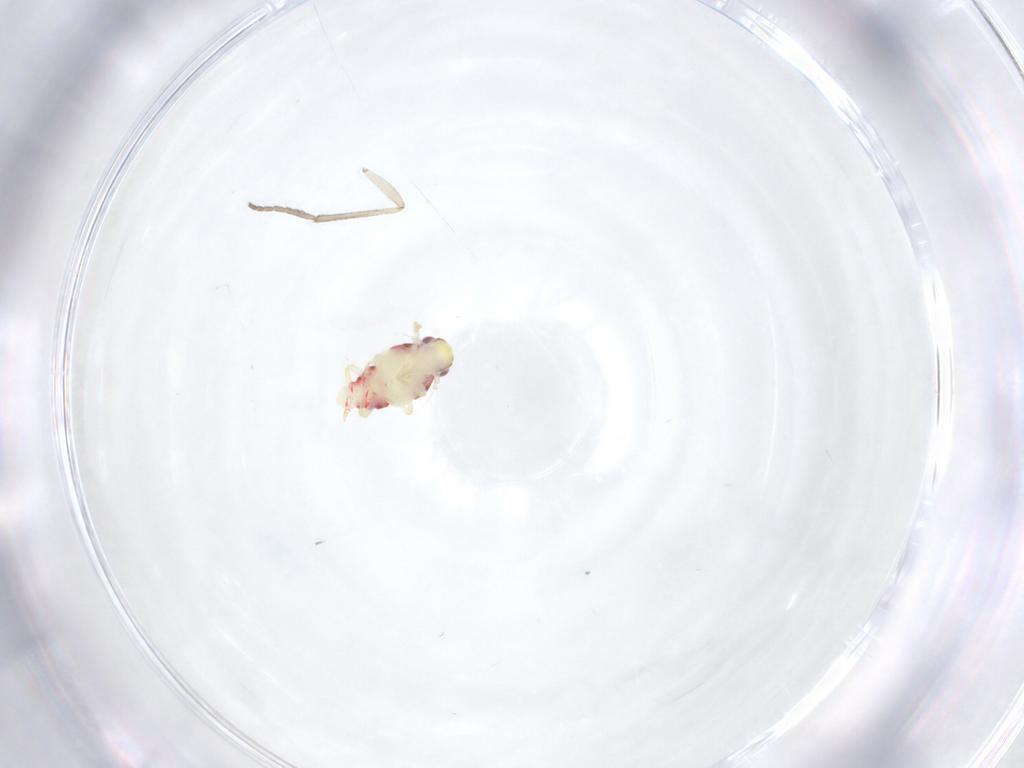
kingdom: Animalia
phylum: Arthropoda
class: Insecta
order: Hemiptera
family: Tropiduchidae
